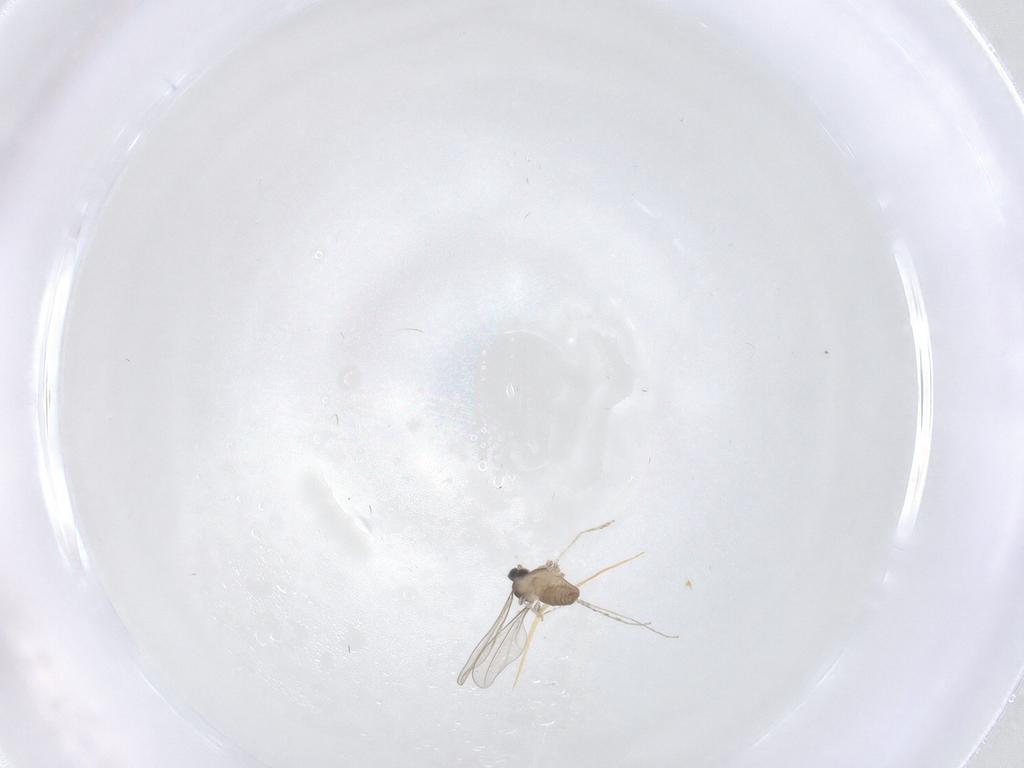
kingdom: Animalia
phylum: Arthropoda
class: Insecta
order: Diptera
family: Cecidomyiidae
